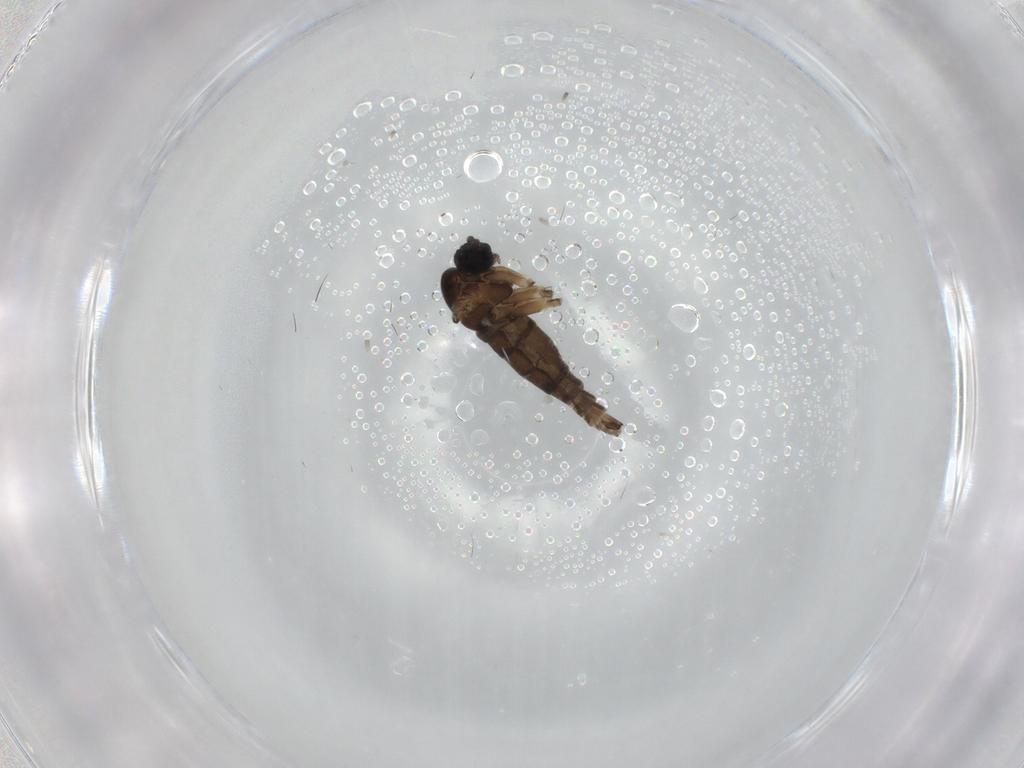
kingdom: Animalia
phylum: Arthropoda
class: Insecta
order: Diptera
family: Sciaridae
